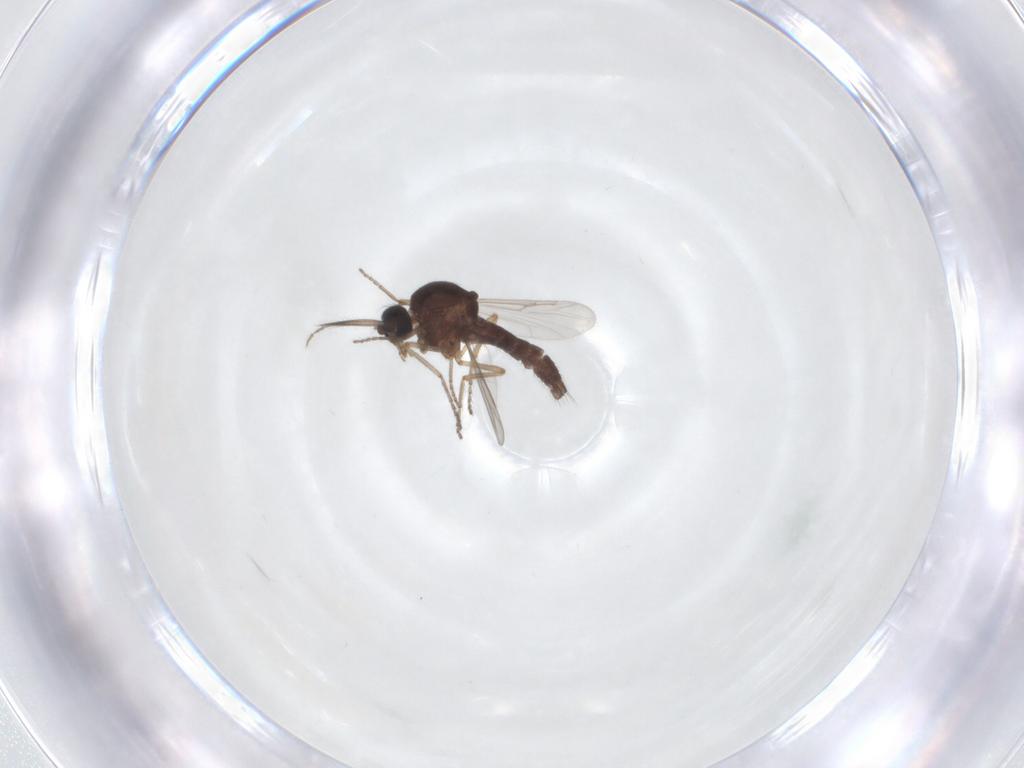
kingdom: Animalia
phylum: Arthropoda
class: Insecta
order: Diptera
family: Ceratopogonidae
